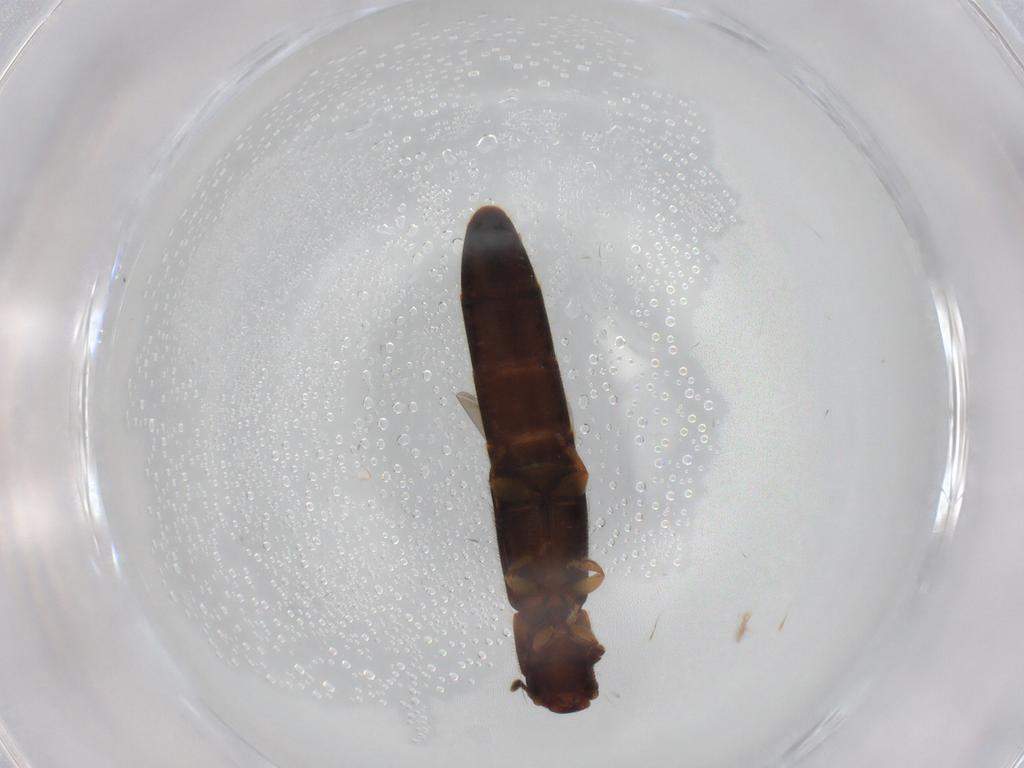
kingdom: Animalia
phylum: Arthropoda
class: Insecta
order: Coleoptera
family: Nitidulidae
